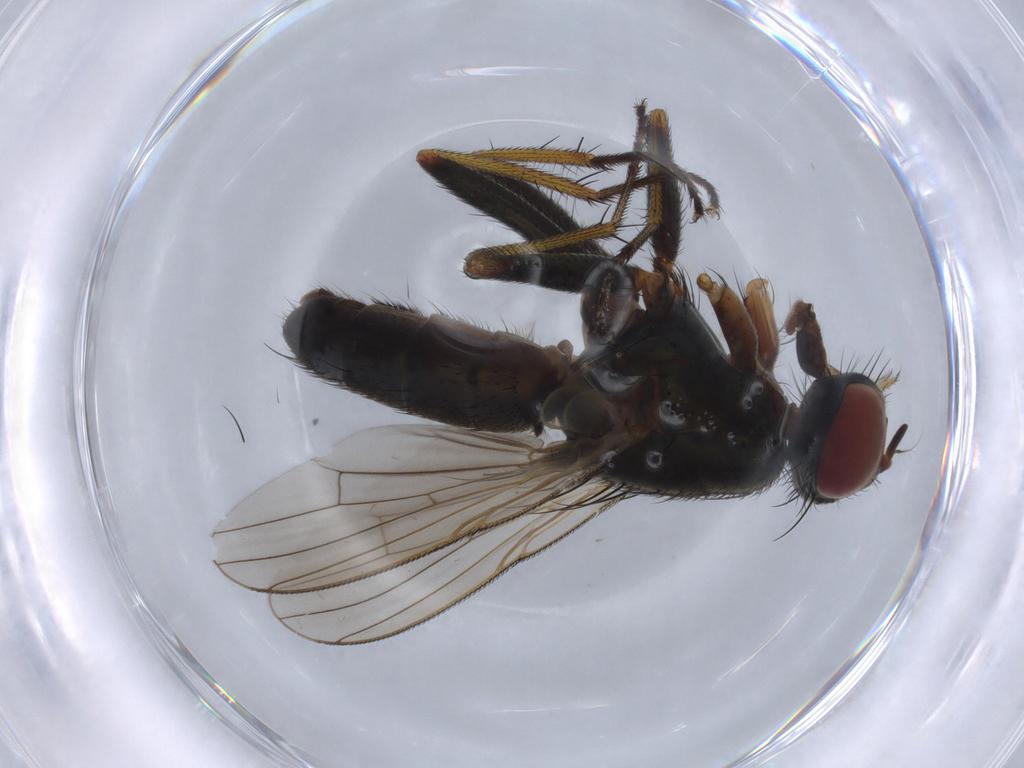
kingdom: Animalia
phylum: Arthropoda
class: Insecta
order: Diptera
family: Muscidae
